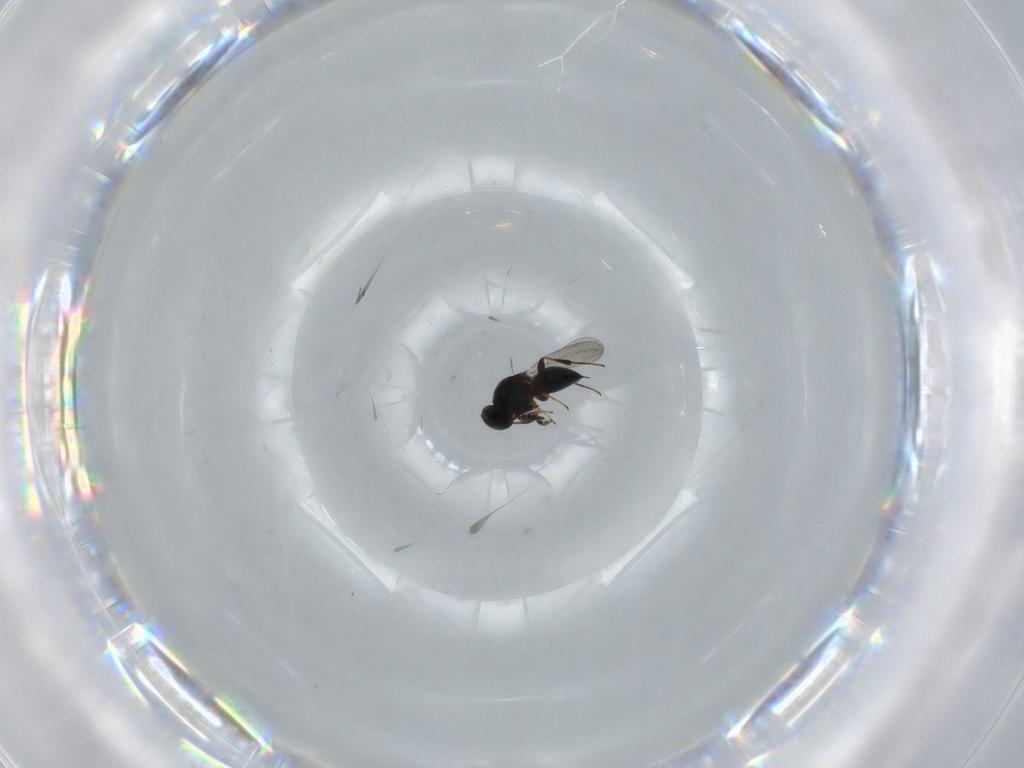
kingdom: Animalia
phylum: Arthropoda
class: Insecta
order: Hymenoptera
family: Platygastridae
